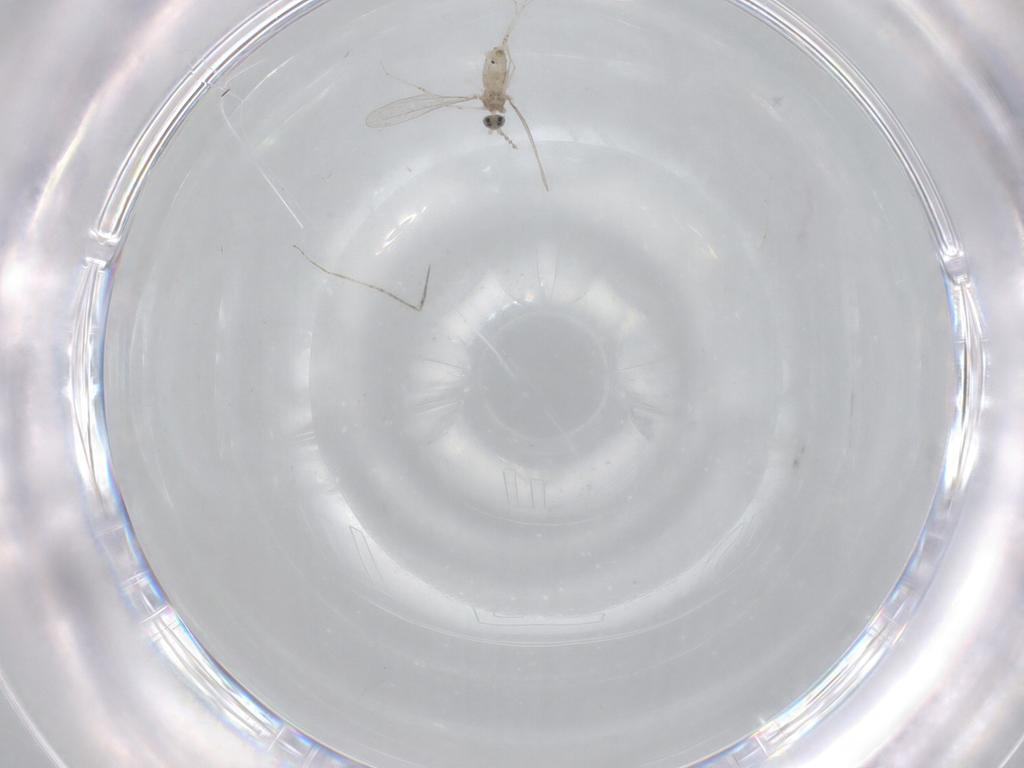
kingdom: Animalia
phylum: Arthropoda
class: Insecta
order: Diptera
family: Cecidomyiidae
